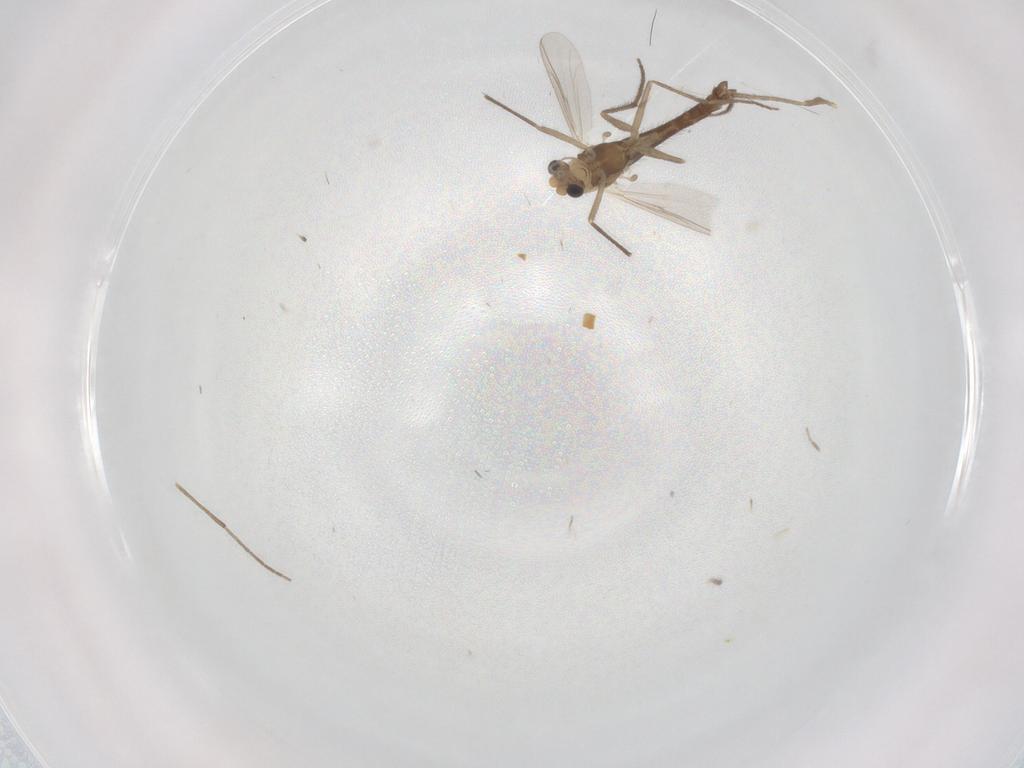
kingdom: Animalia
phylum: Arthropoda
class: Insecta
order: Diptera
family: Chironomidae
